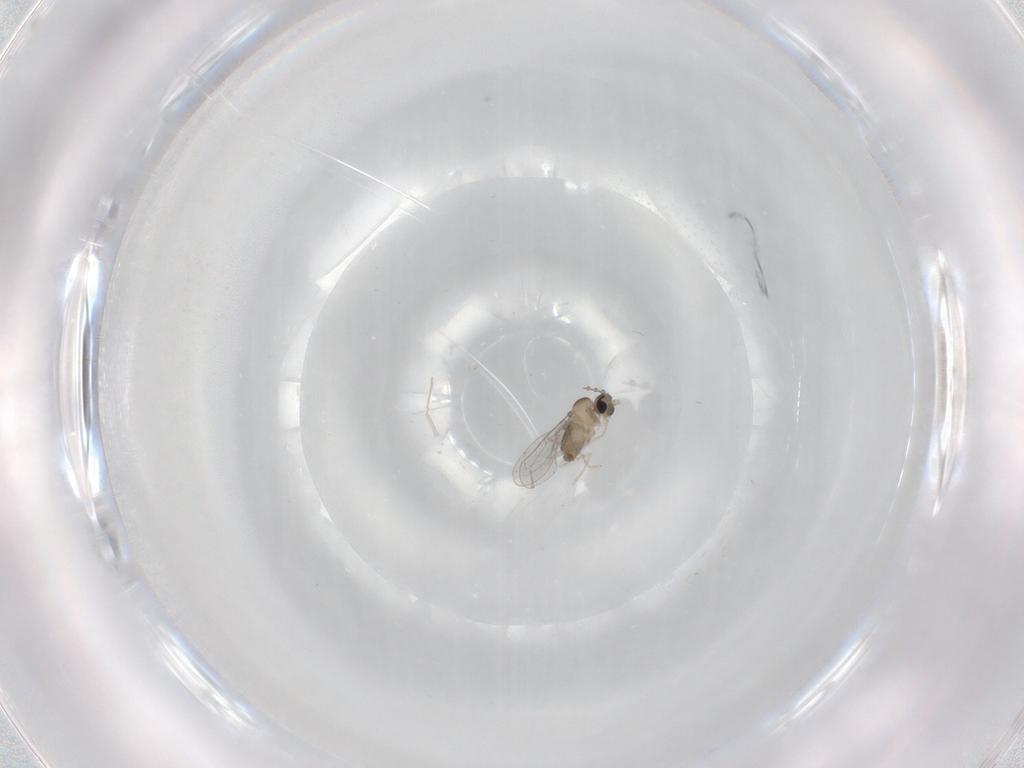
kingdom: Animalia
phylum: Arthropoda
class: Insecta
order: Diptera
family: Cecidomyiidae
